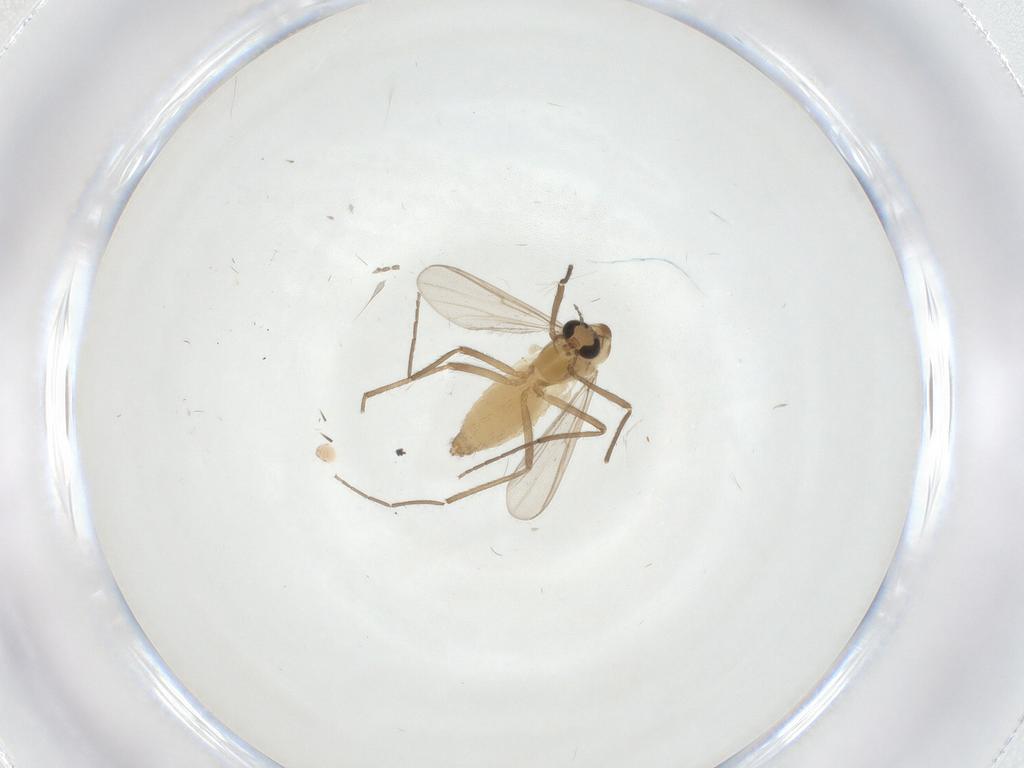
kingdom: Animalia
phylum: Arthropoda
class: Insecta
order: Diptera
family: Chironomidae
